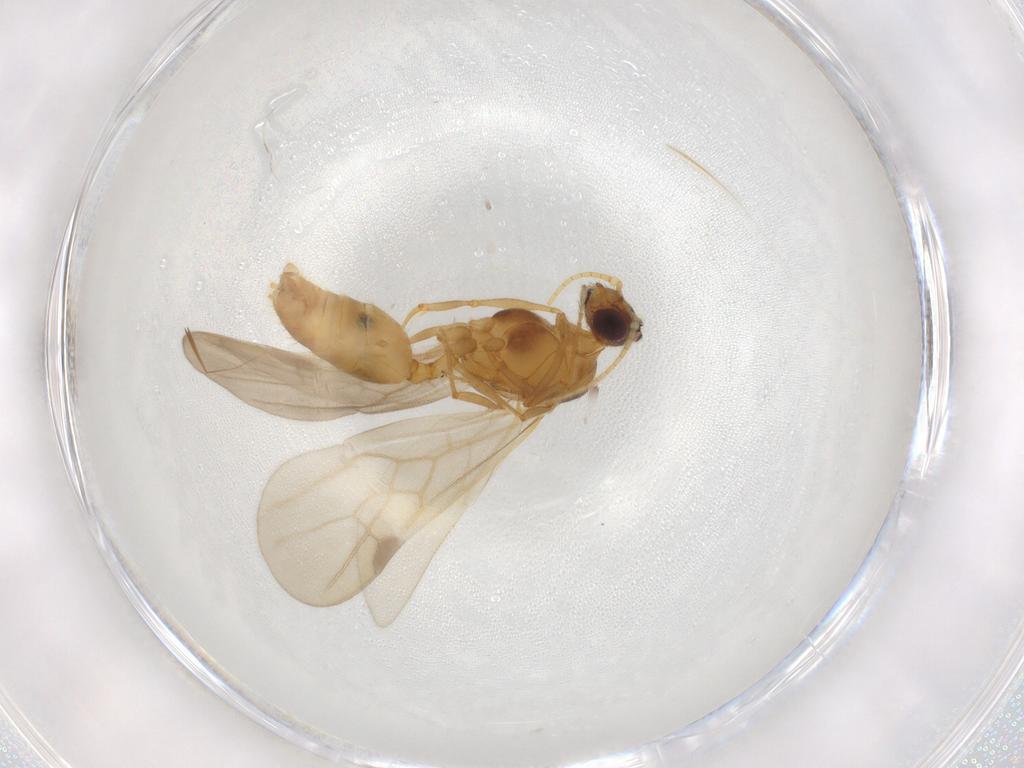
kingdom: Animalia
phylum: Arthropoda
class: Insecta
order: Hymenoptera
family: Formicidae
